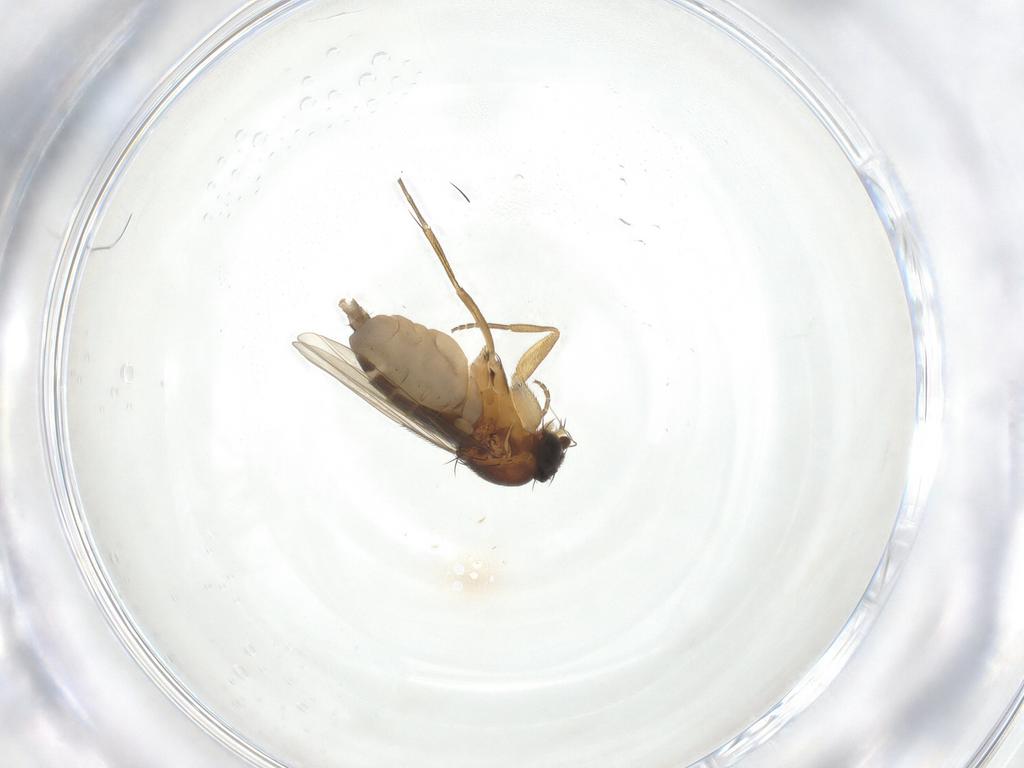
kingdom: Animalia
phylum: Arthropoda
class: Insecta
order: Diptera
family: Phoridae
